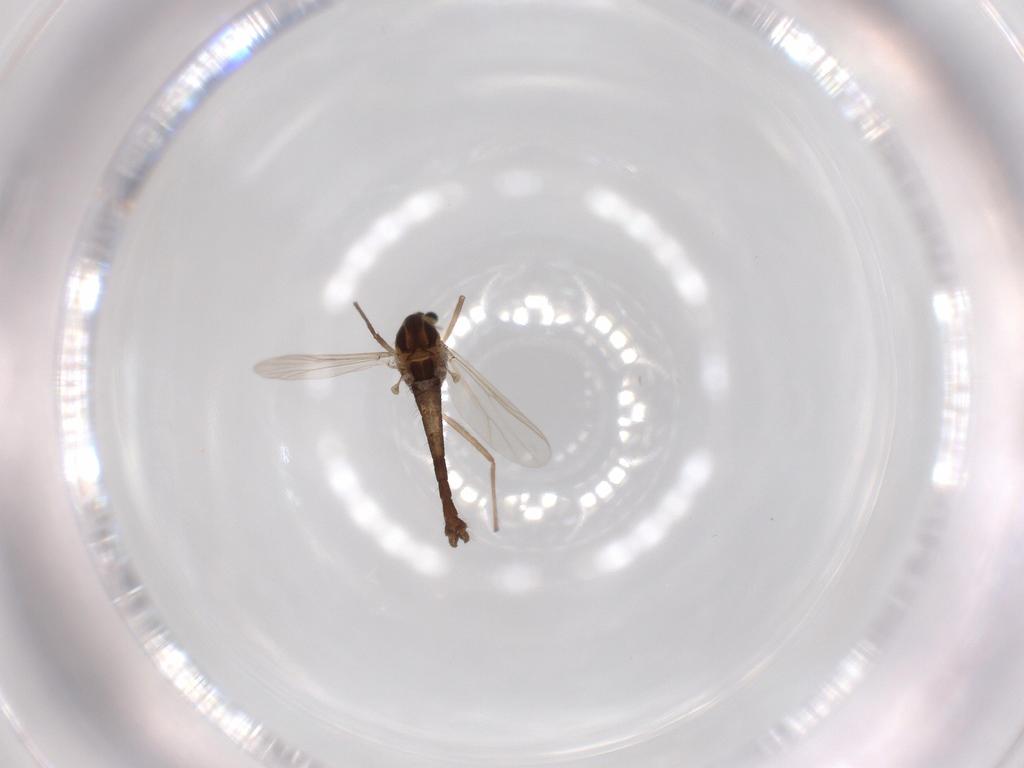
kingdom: Animalia
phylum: Arthropoda
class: Insecta
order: Diptera
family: Chironomidae
